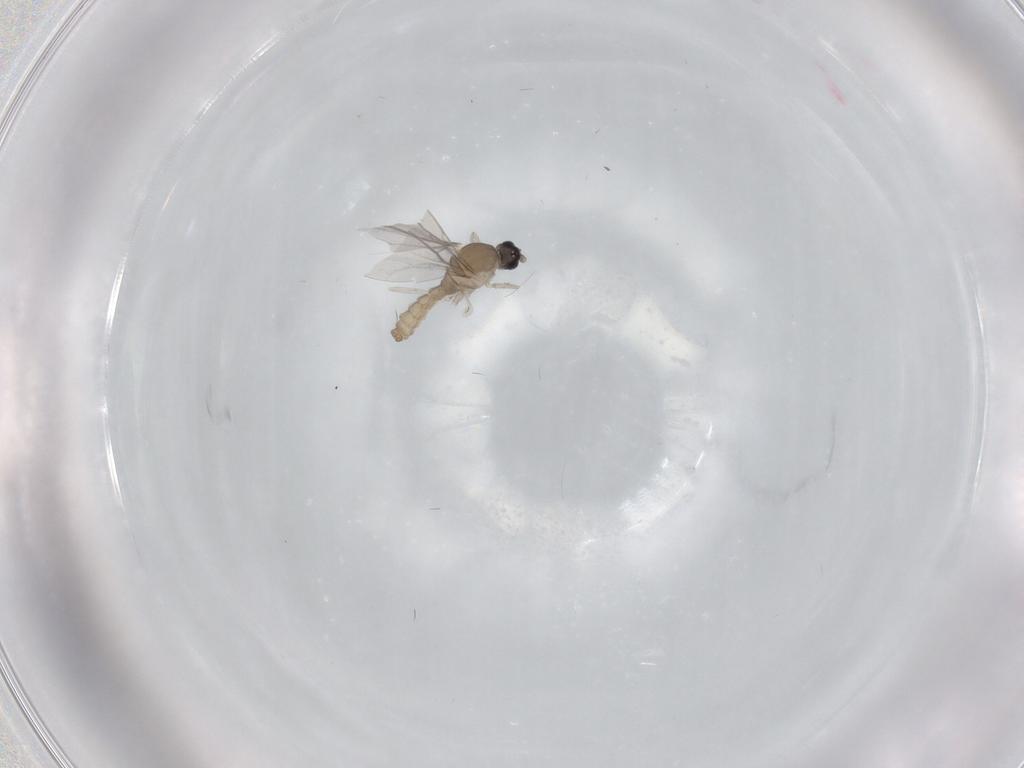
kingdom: Animalia
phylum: Arthropoda
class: Insecta
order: Diptera
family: Cecidomyiidae
